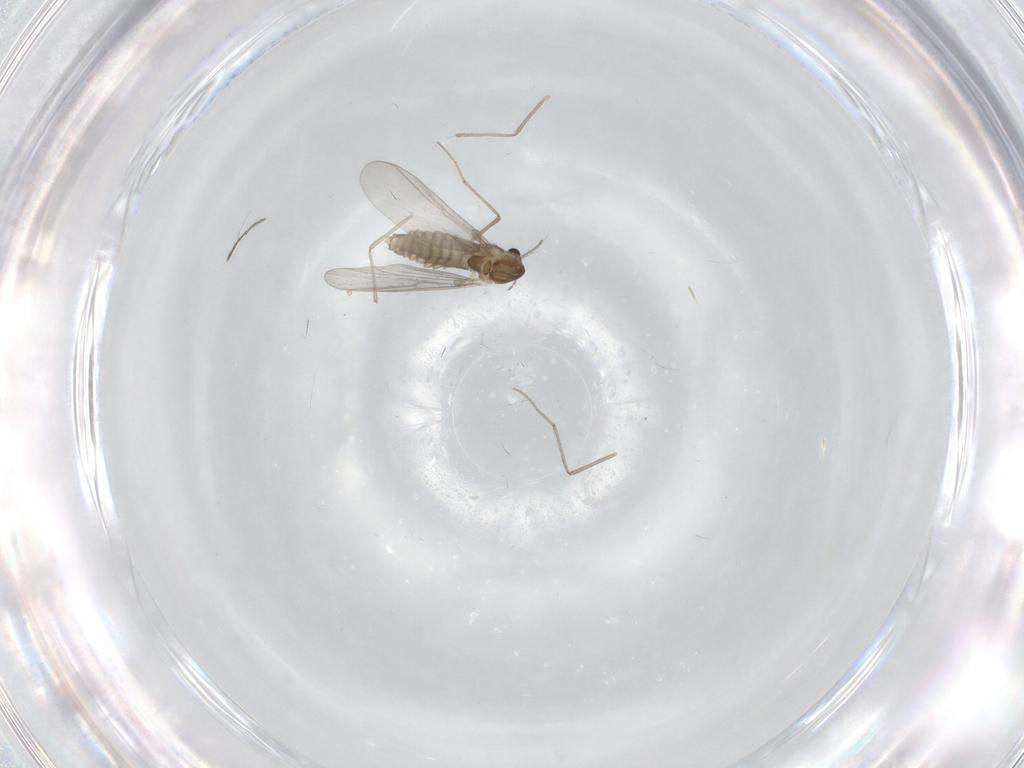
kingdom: Animalia
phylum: Arthropoda
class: Insecta
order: Diptera
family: Chironomidae
